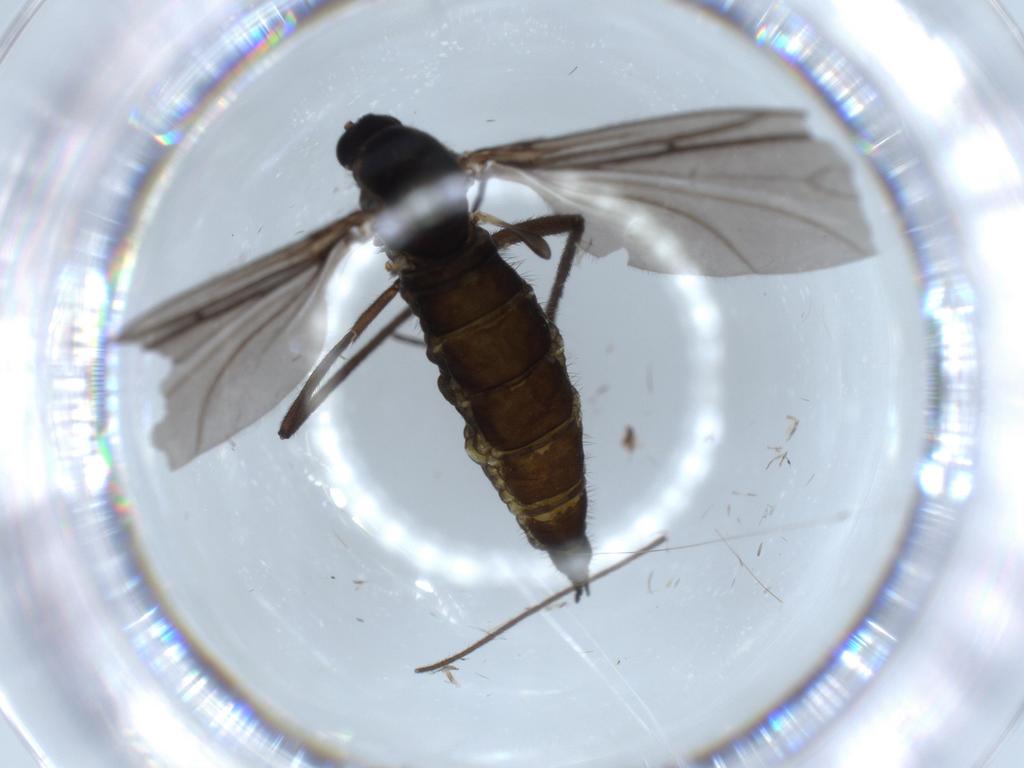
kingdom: Animalia
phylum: Arthropoda
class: Insecta
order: Diptera
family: Sciaridae
